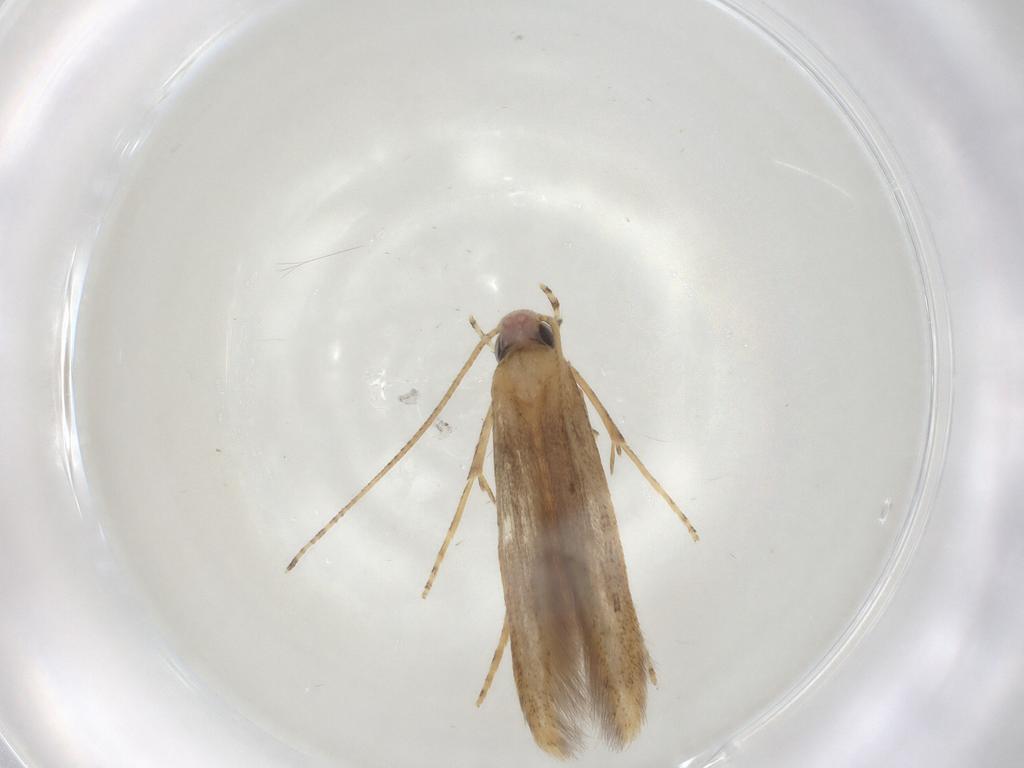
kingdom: Animalia
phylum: Arthropoda
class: Insecta
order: Lepidoptera
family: Batrachedridae
